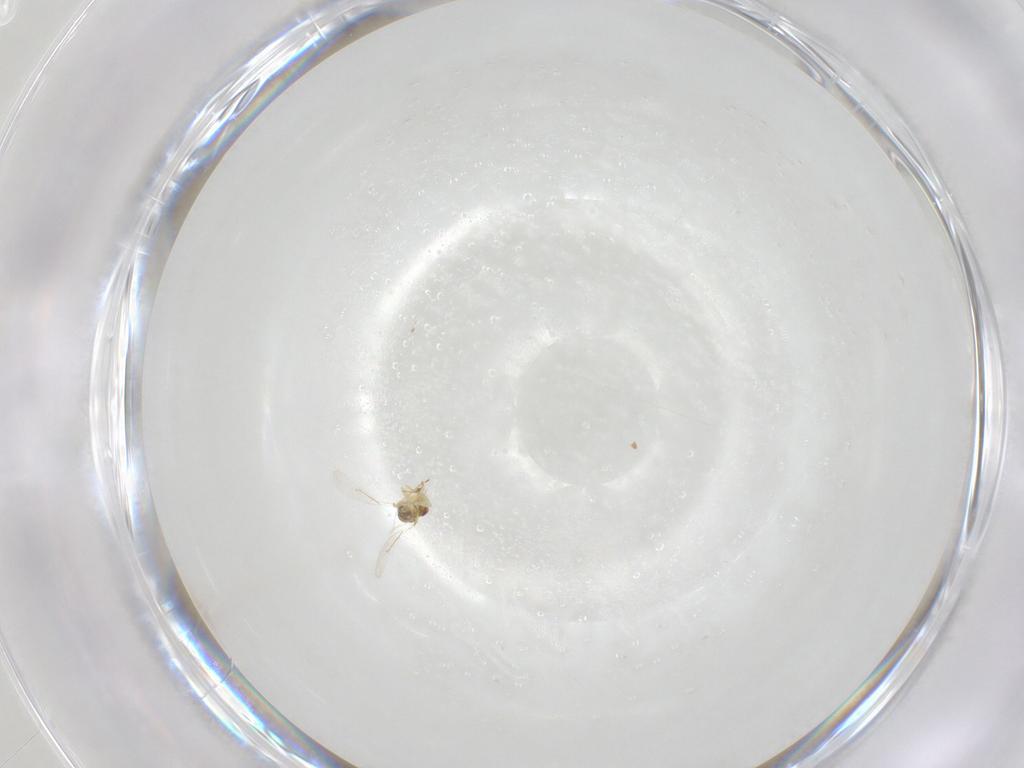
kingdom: Animalia
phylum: Arthropoda
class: Insecta
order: Hymenoptera
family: Eulophidae
